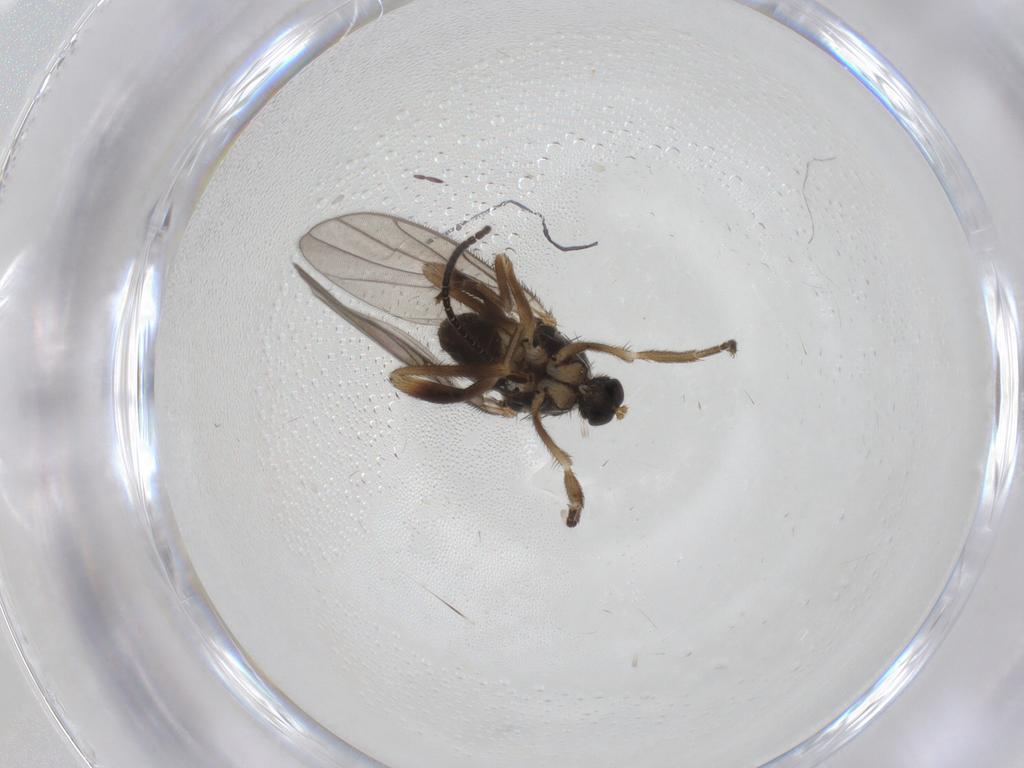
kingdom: Animalia
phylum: Arthropoda
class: Insecta
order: Diptera
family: Hybotidae
